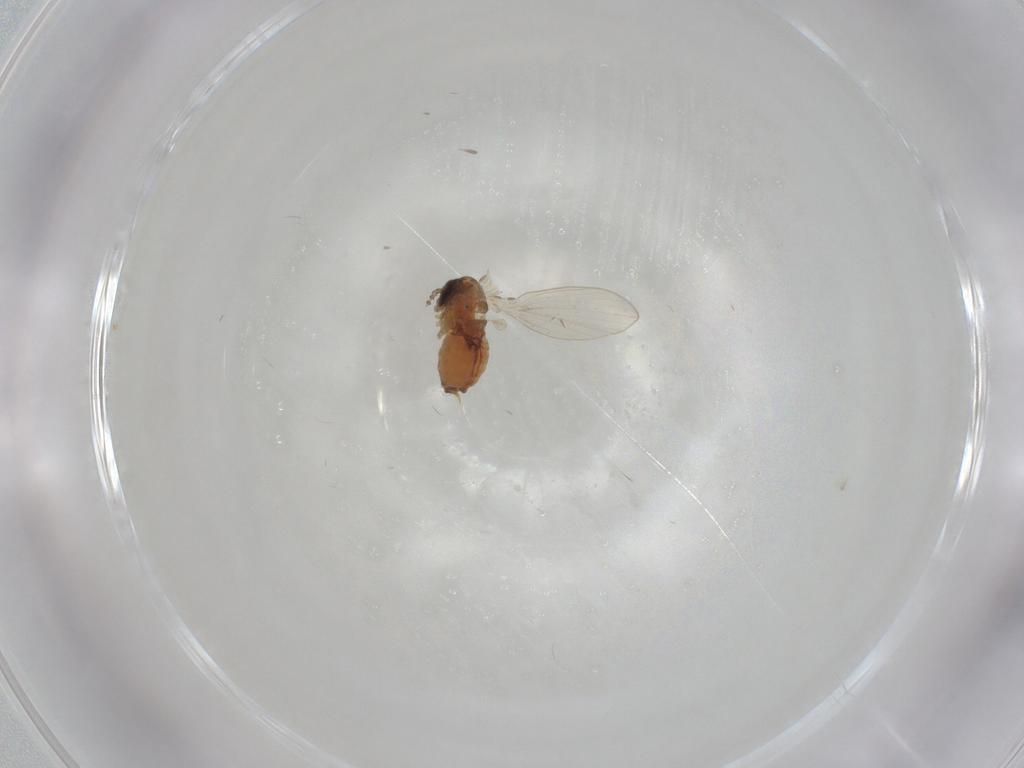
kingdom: Animalia
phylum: Arthropoda
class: Insecta
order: Diptera
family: Psychodidae
